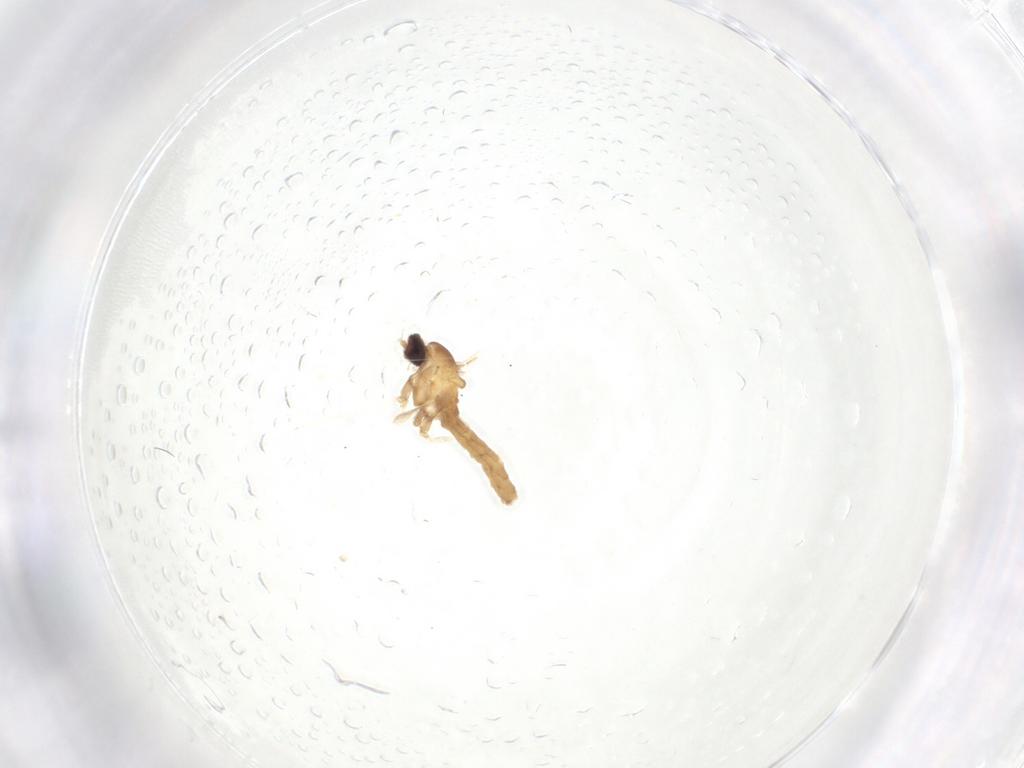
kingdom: Animalia
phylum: Arthropoda
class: Insecta
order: Diptera
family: Cecidomyiidae
